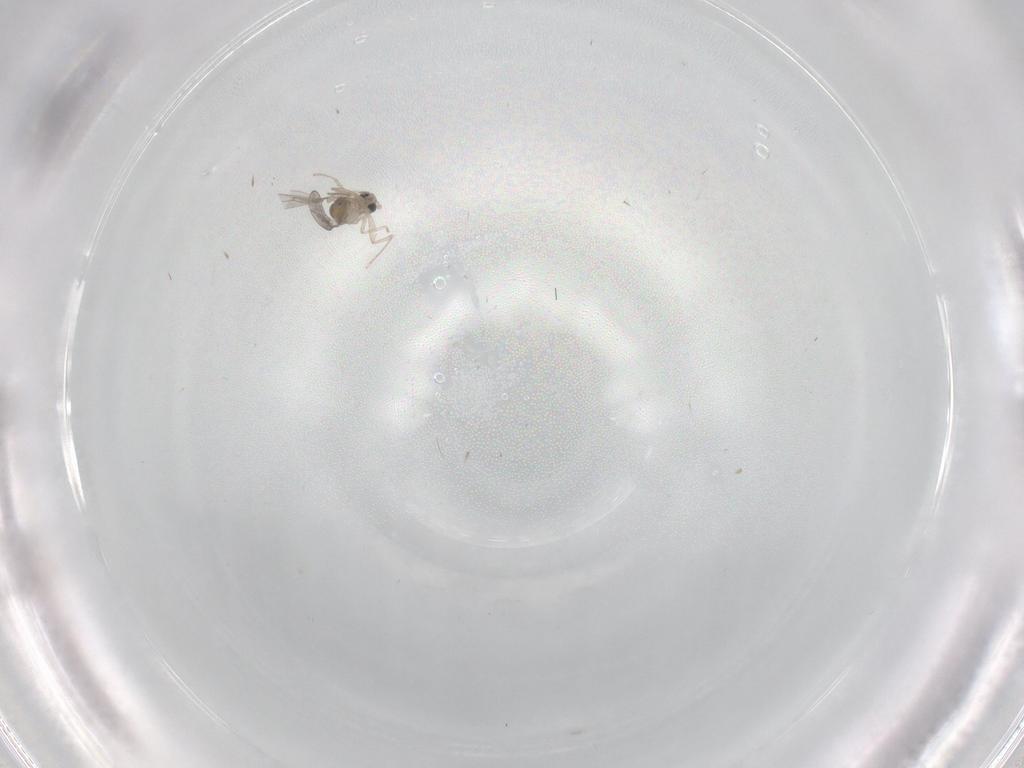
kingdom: Animalia
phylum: Arthropoda
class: Insecta
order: Diptera
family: Cecidomyiidae
